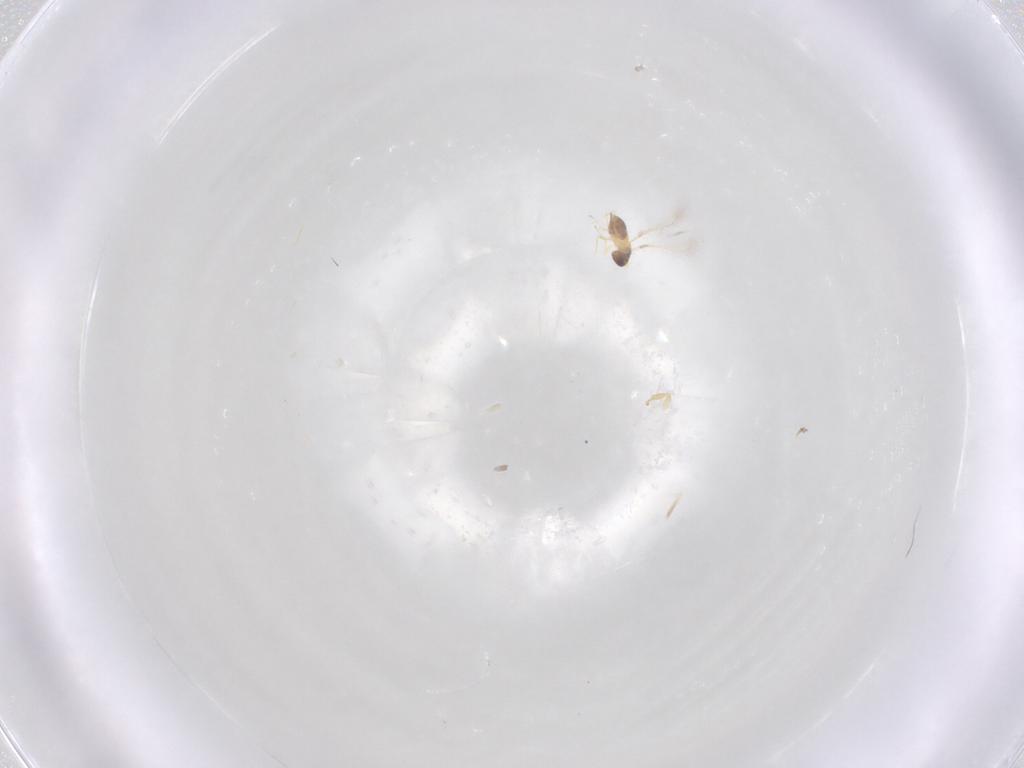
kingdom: Animalia
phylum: Arthropoda
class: Insecta
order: Hymenoptera
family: Mymaridae
